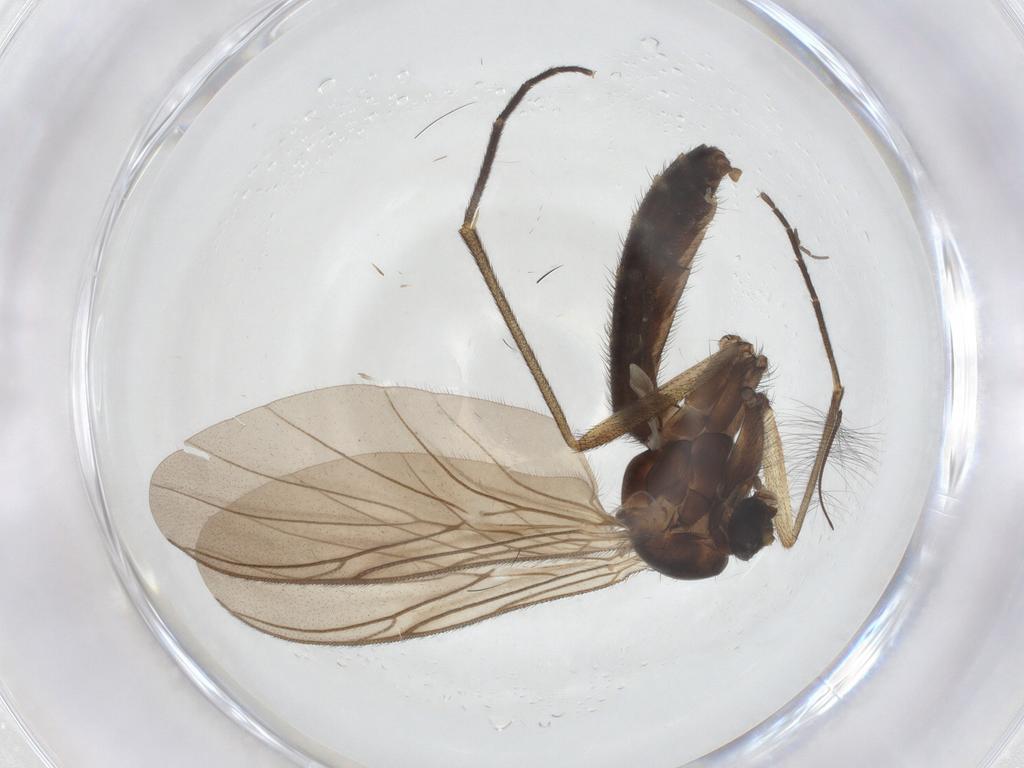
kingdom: Animalia
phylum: Arthropoda
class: Insecta
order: Diptera
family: Keroplatidae
